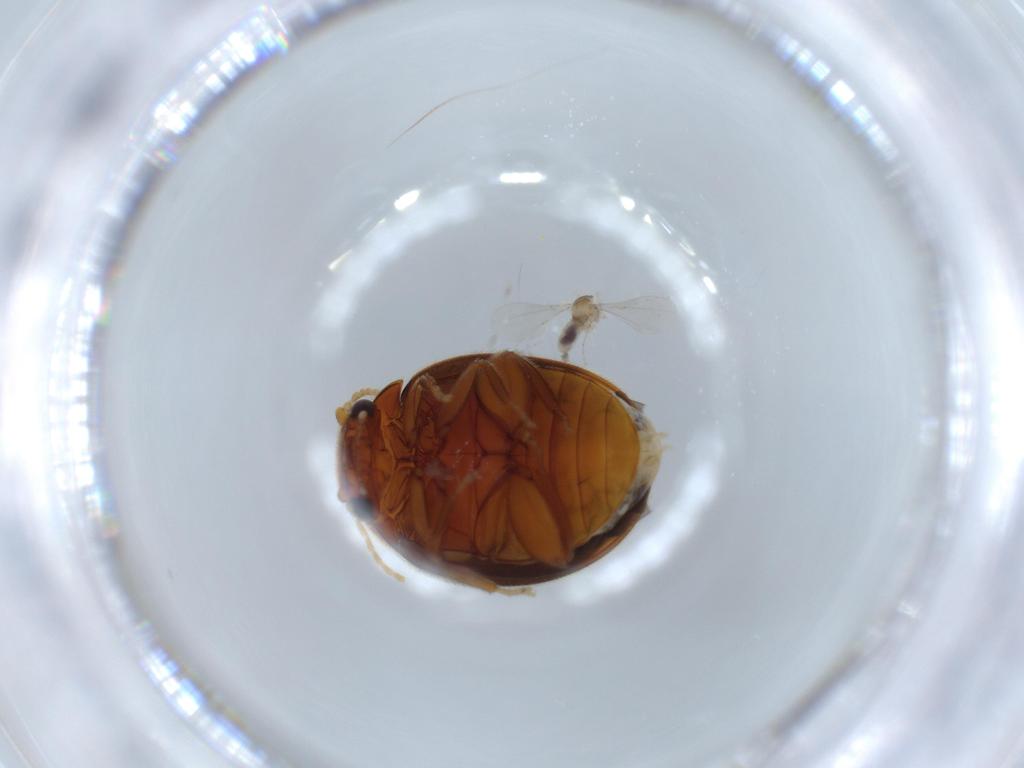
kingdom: Animalia
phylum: Arthropoda
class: Insecta
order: Coleoptera
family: Scirtidae
